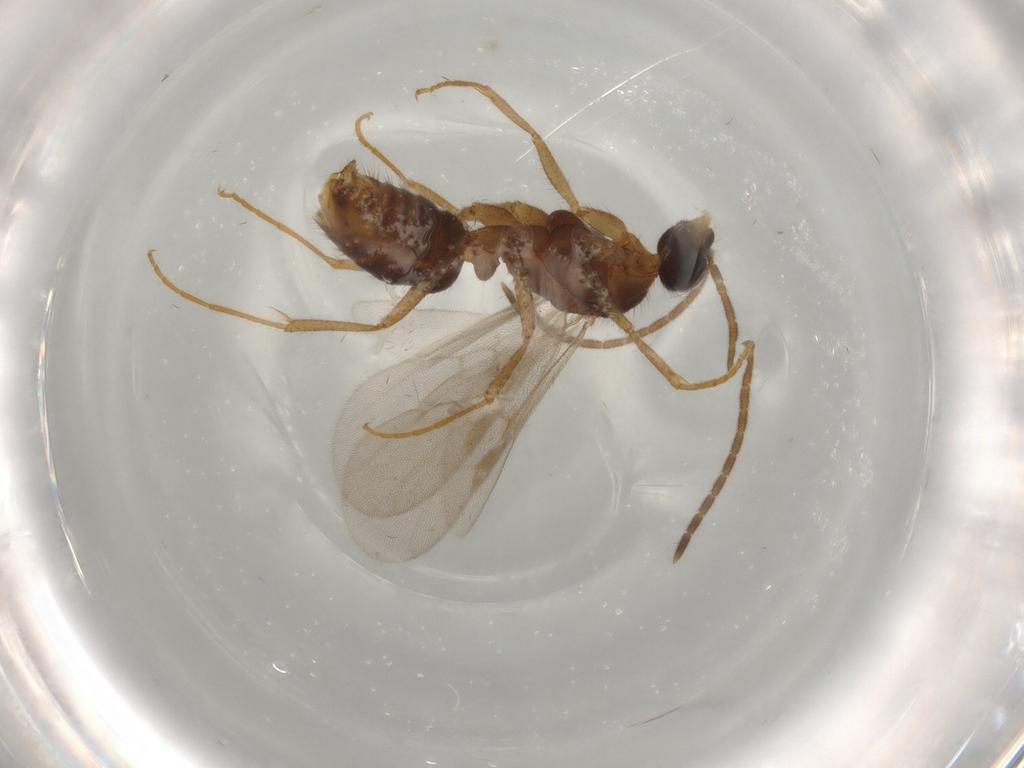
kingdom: Animalia
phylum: Arthropoda
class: Insecta
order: Hymenoptera
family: Formicidae
